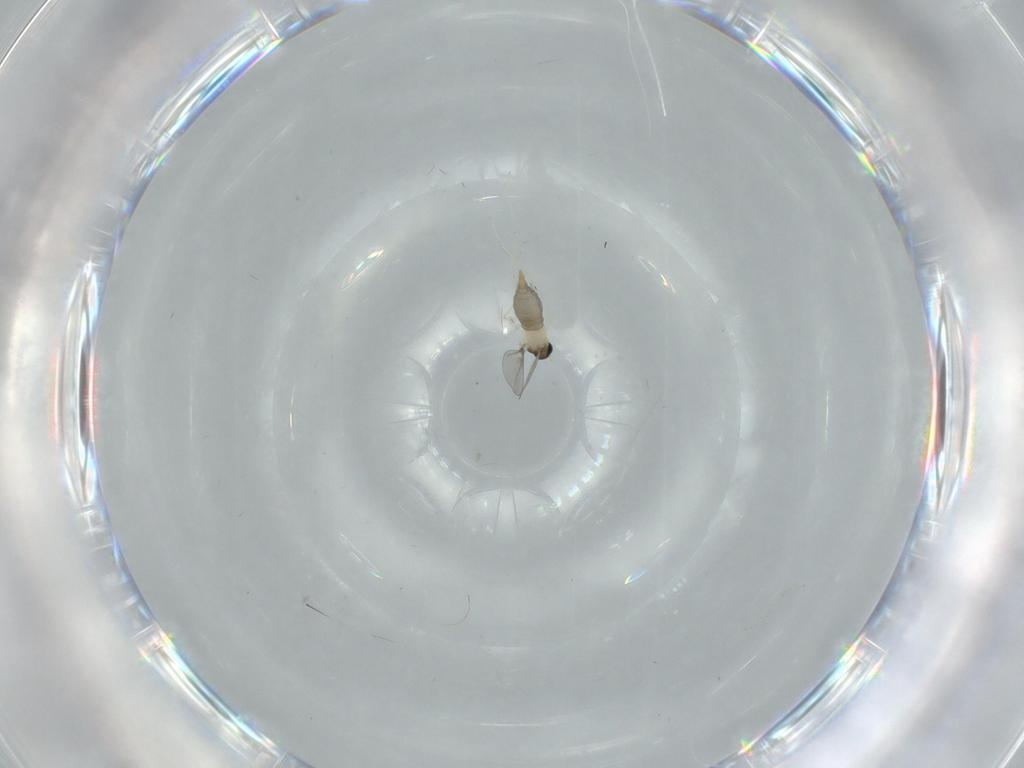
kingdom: Animalia
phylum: Arthropoda
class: Insecta
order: Diptera
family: Cecidomyiidae
